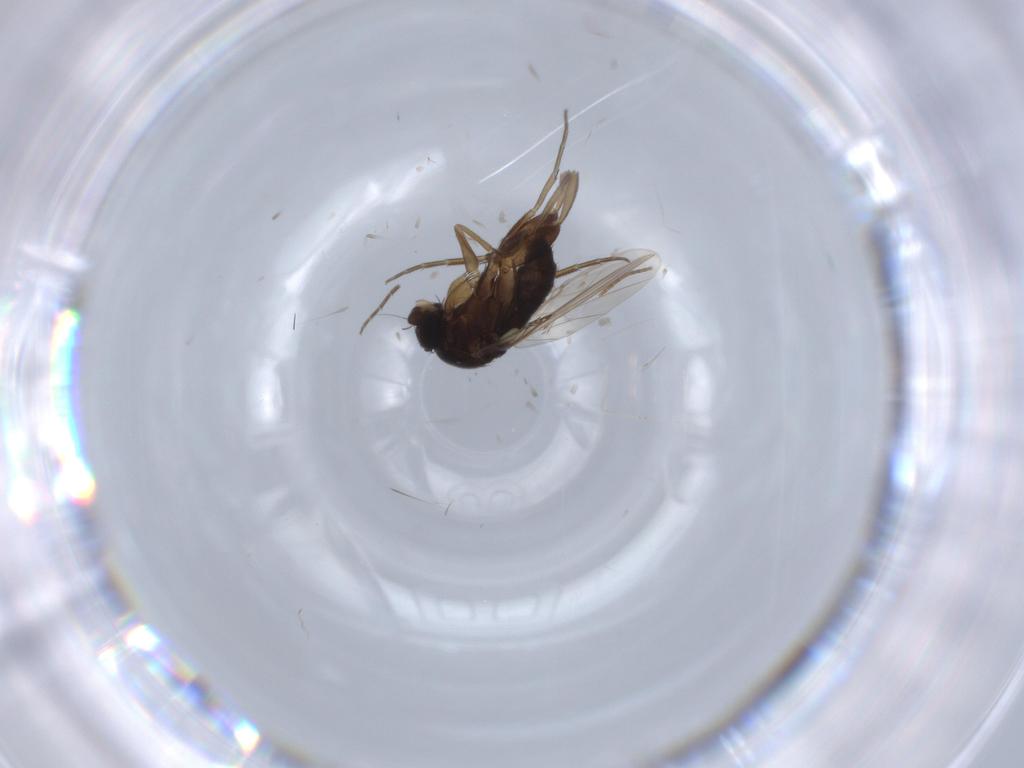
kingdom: Animalia
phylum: Arthropoda
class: Insecta
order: Diptera
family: Phoridae
